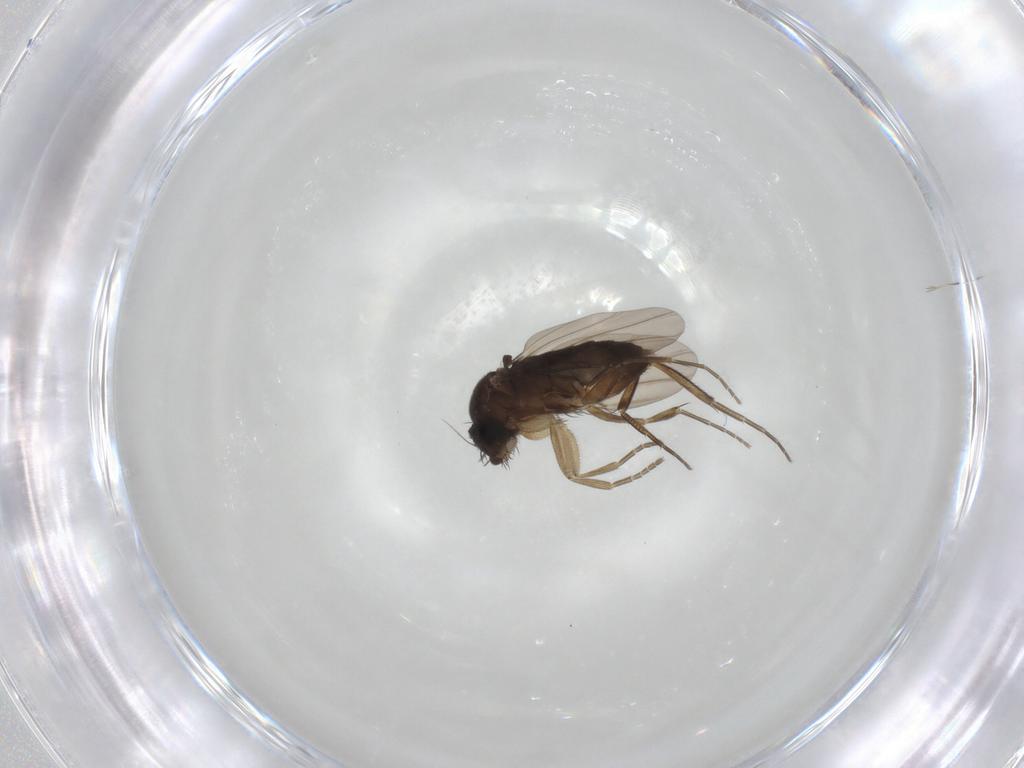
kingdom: Animalia
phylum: Arthropoda
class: Insecta
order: Diptera
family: Phoridae
